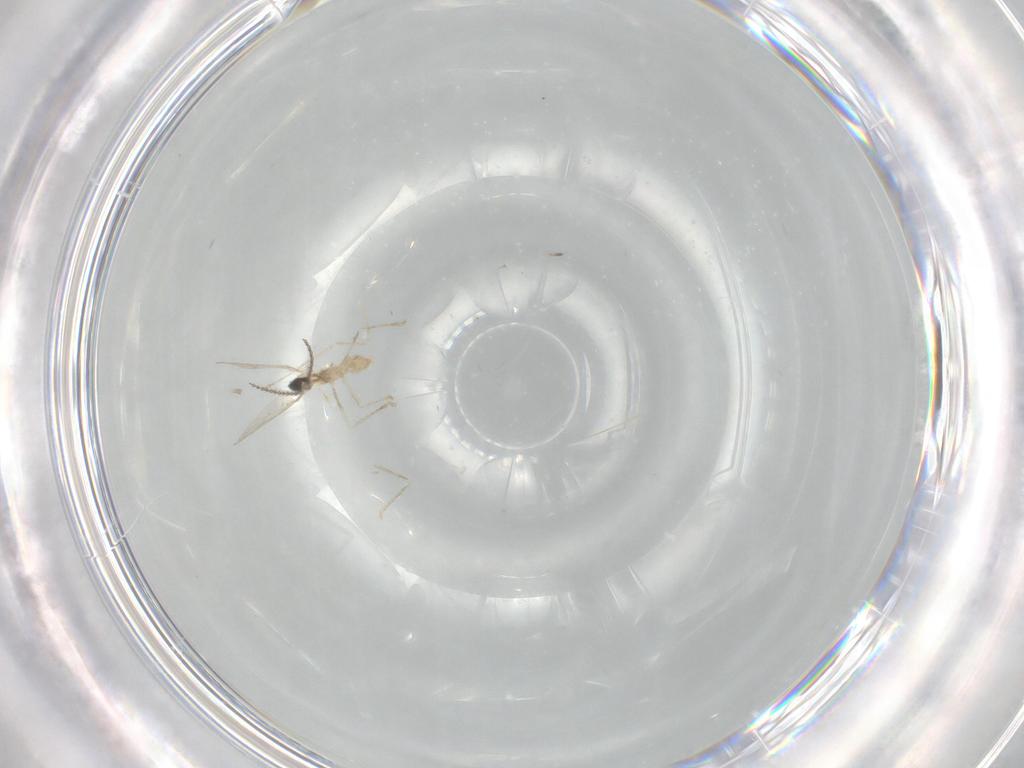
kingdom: Animalia
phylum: Arthropoda
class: Insecta
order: Diptera
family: Cecidomyiidae
